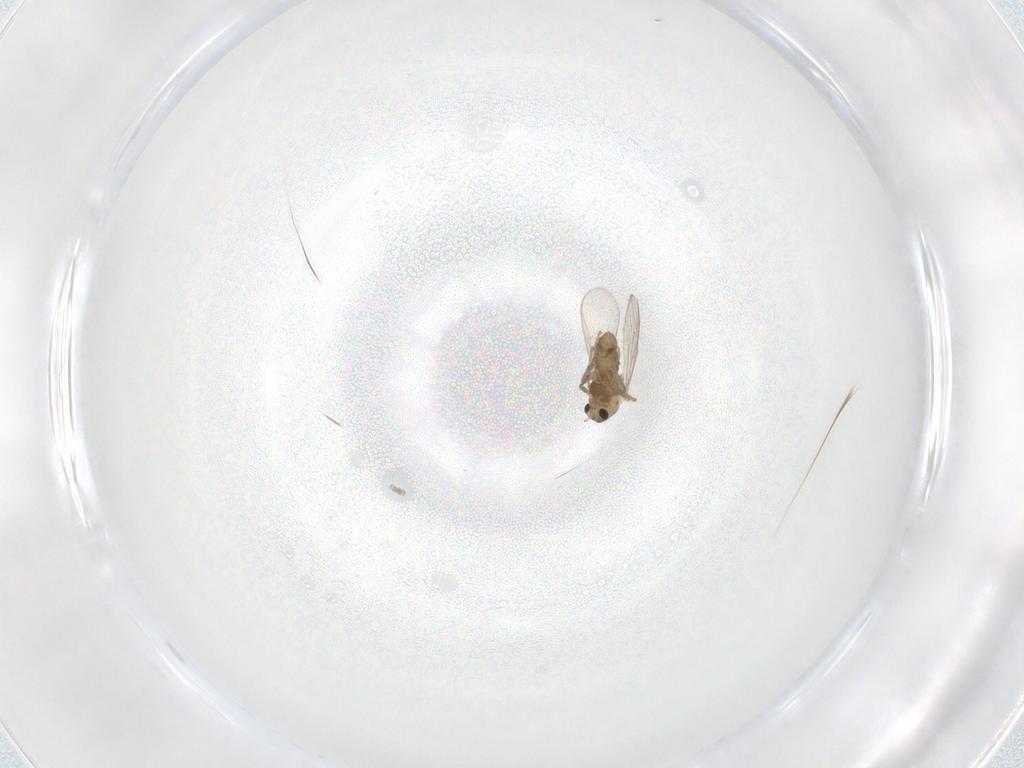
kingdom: Animalia
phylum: Arthropoda
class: Insecta
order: Diptera
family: Chironomidae
